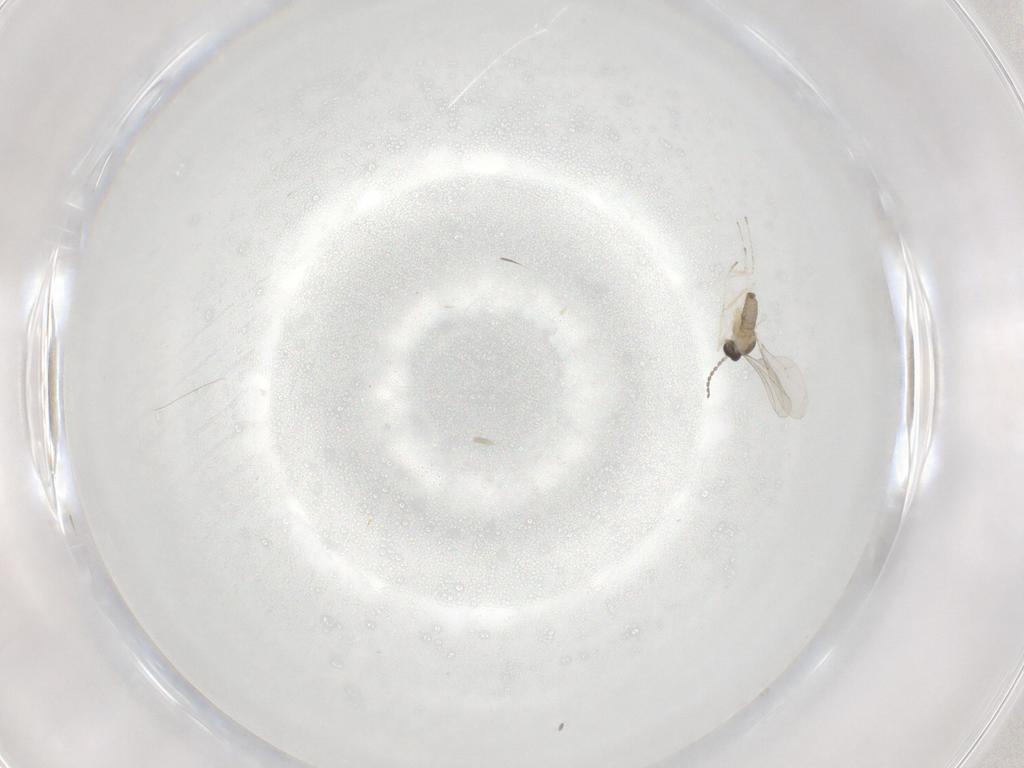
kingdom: Animalia
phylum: Arthropoda
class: Insecta
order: Diptera
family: Cecidomyiidae
